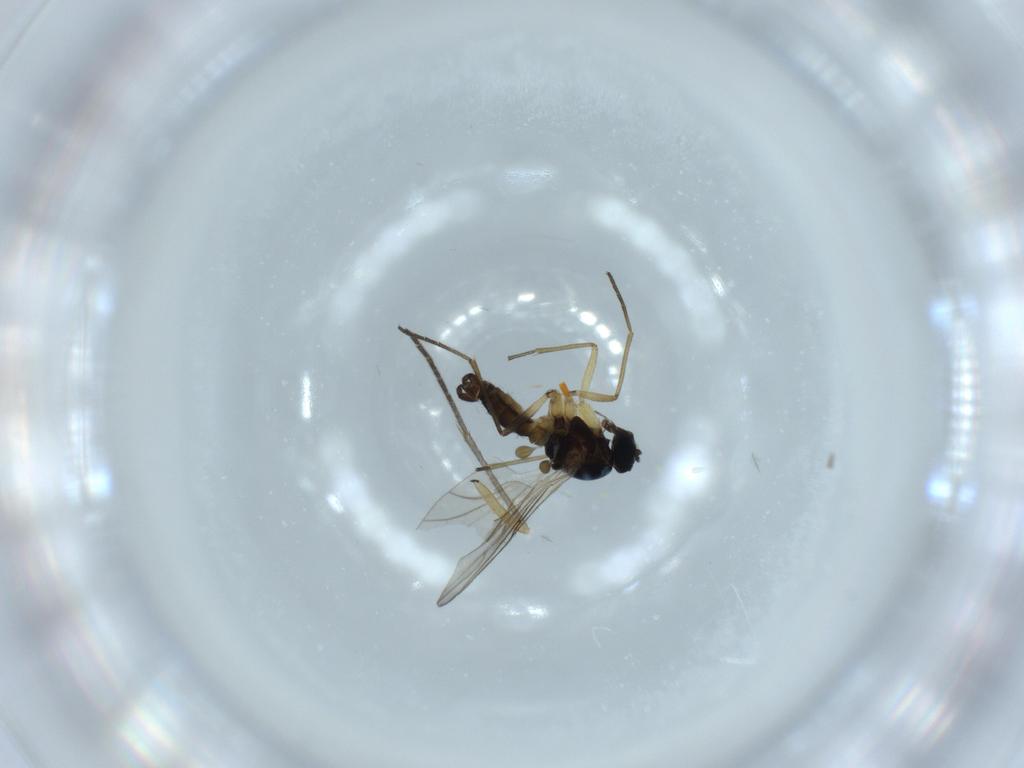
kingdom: Animalia
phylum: Arthropoda
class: Insecta
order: Diptera
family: Sciaridae
